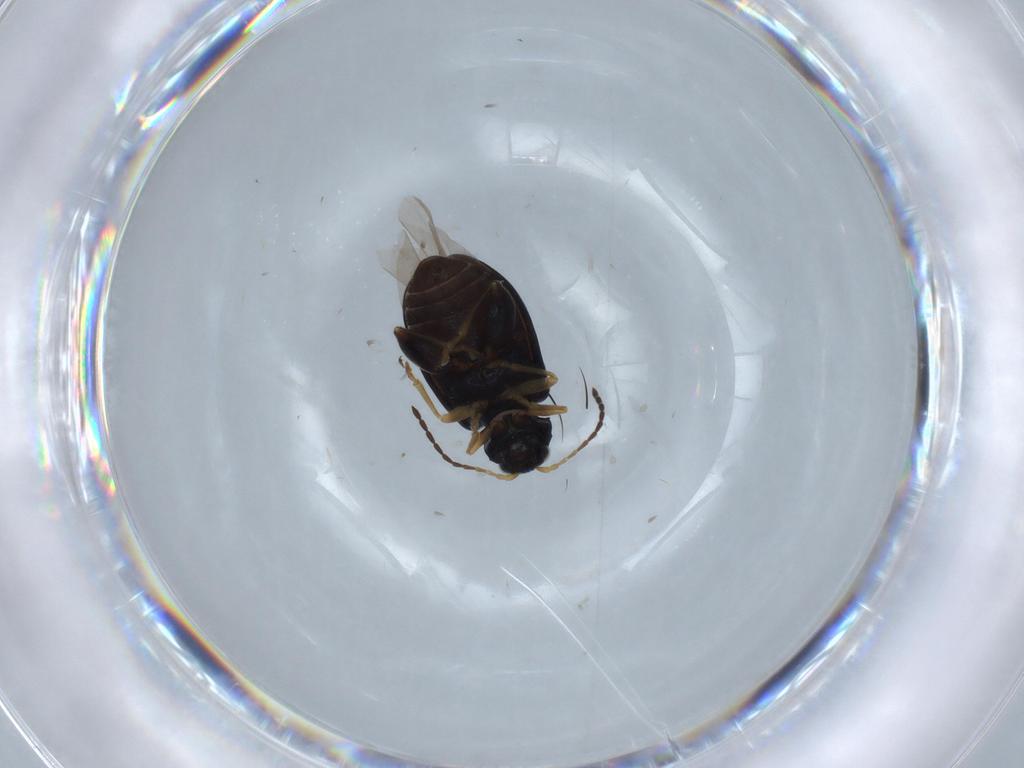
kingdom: Animalia
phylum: Arthropoda
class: Insecta
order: Coleoptera
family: Chrysomelidae
